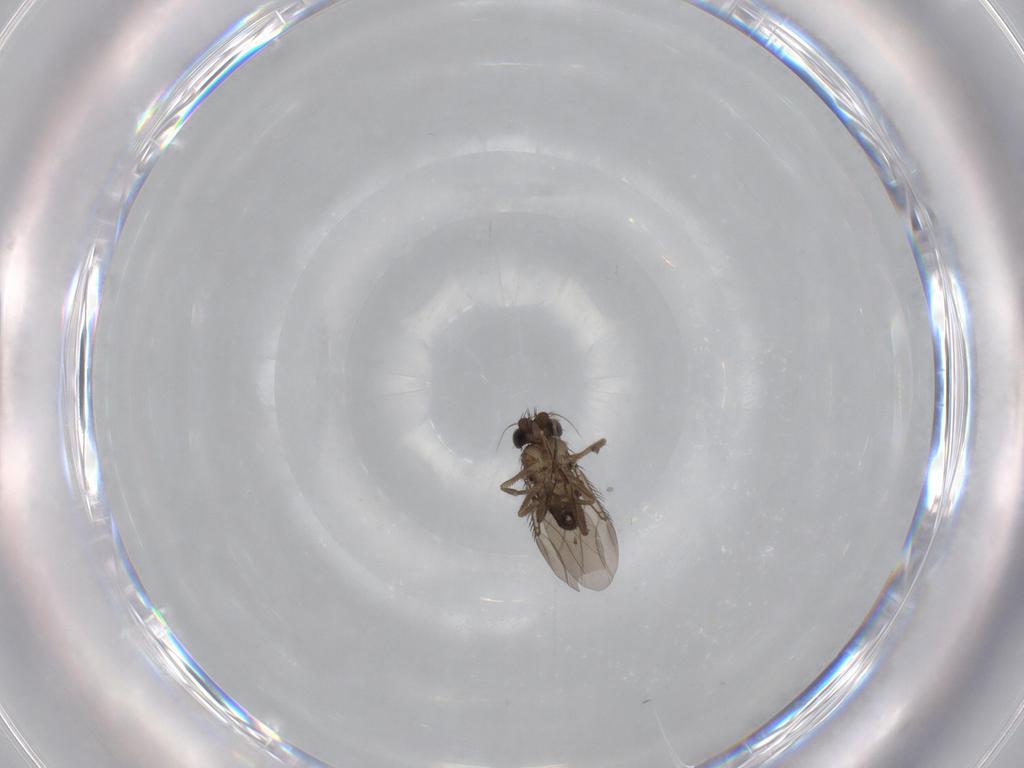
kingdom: Animalia
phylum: Arthropoda
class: Insecta
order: Diptera
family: Phoridae
